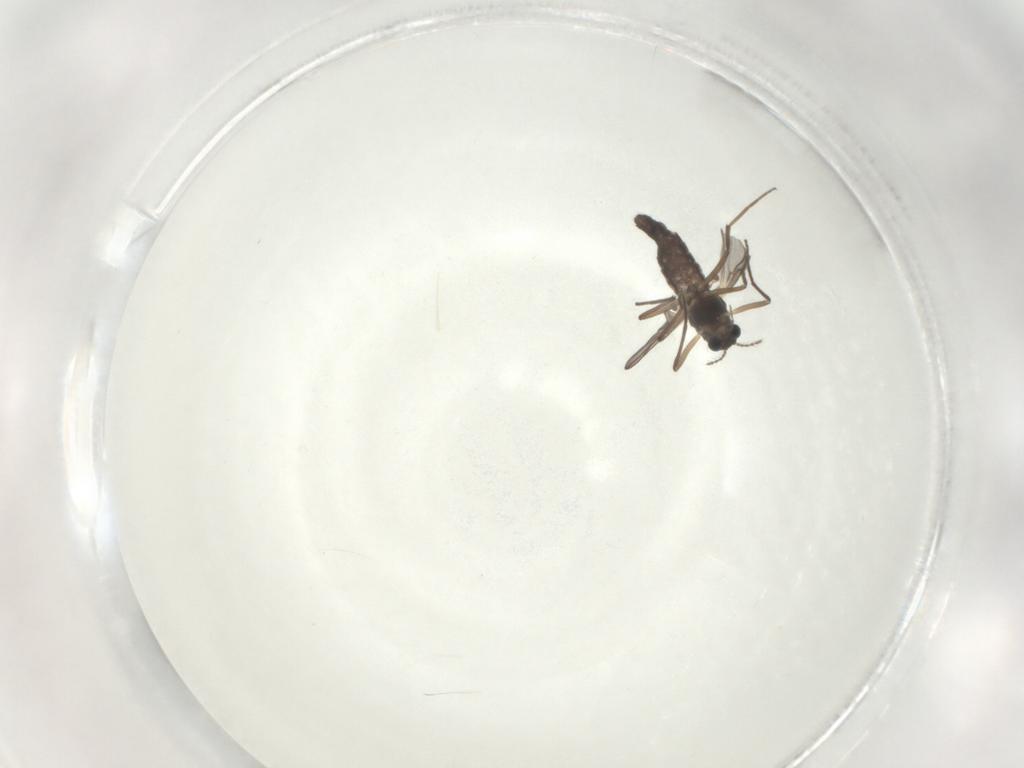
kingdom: Animalia
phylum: Arthropoda
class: Insecta
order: Diptera
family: Chironomidae
